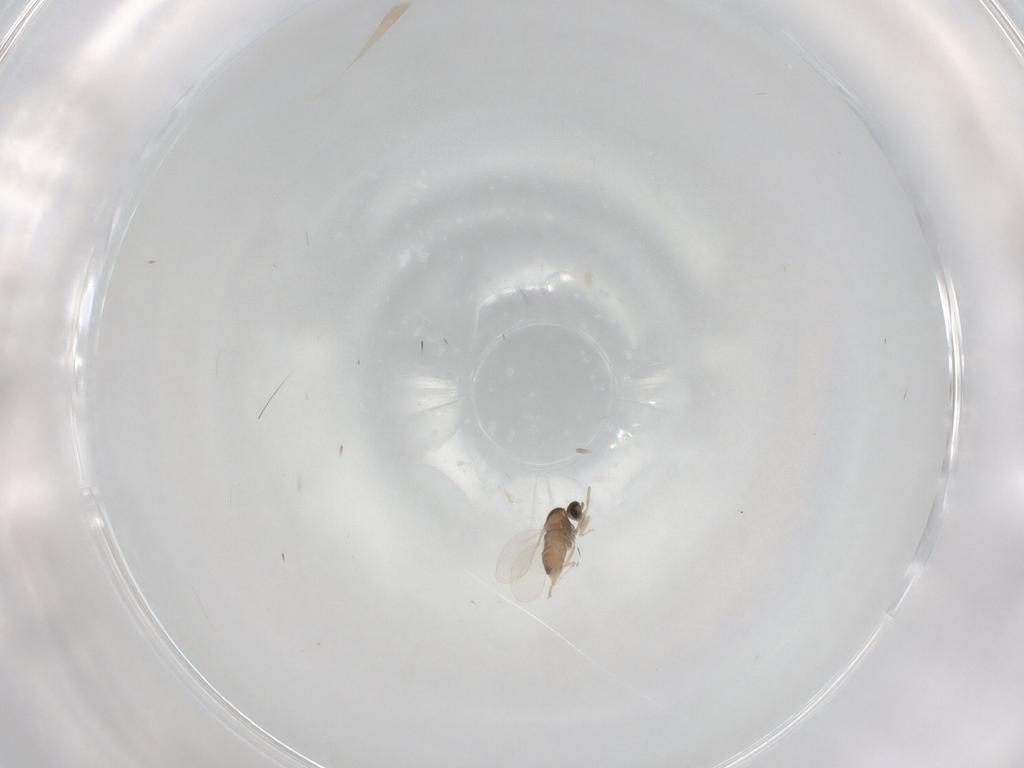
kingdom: Animalia
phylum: Arthropoda
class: Insecta
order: Diptera
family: Cecidomyiidae
